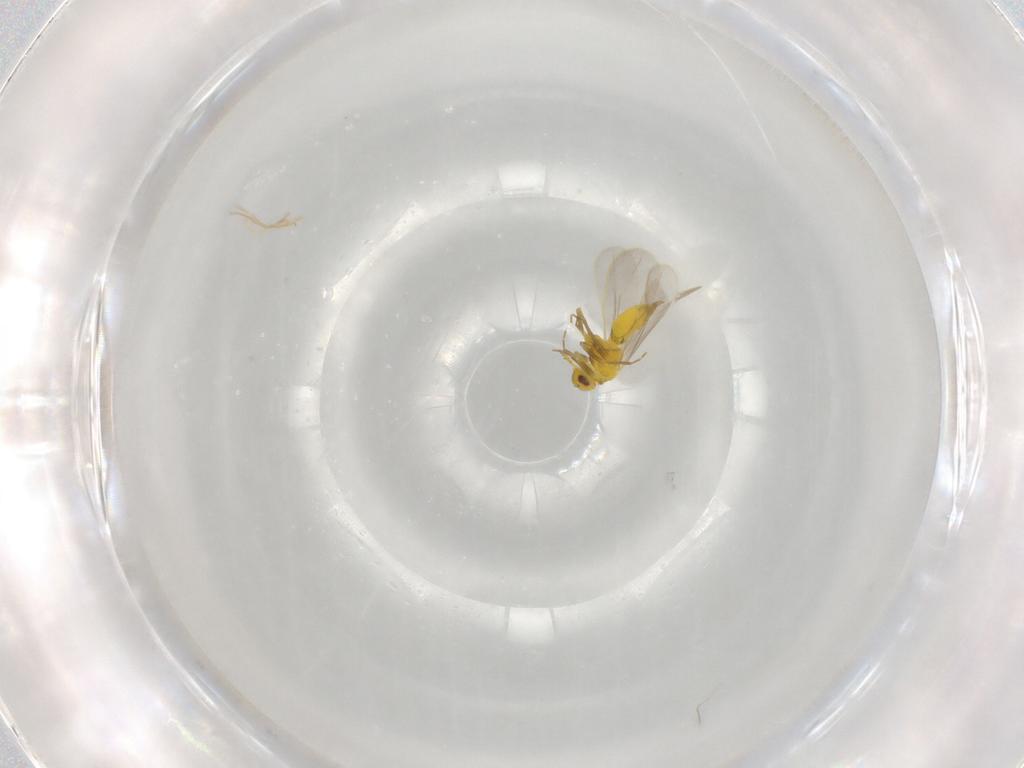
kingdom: Animalia
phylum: Arthropoda
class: Insecta
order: Hemiptera
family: Aleyrodidae
